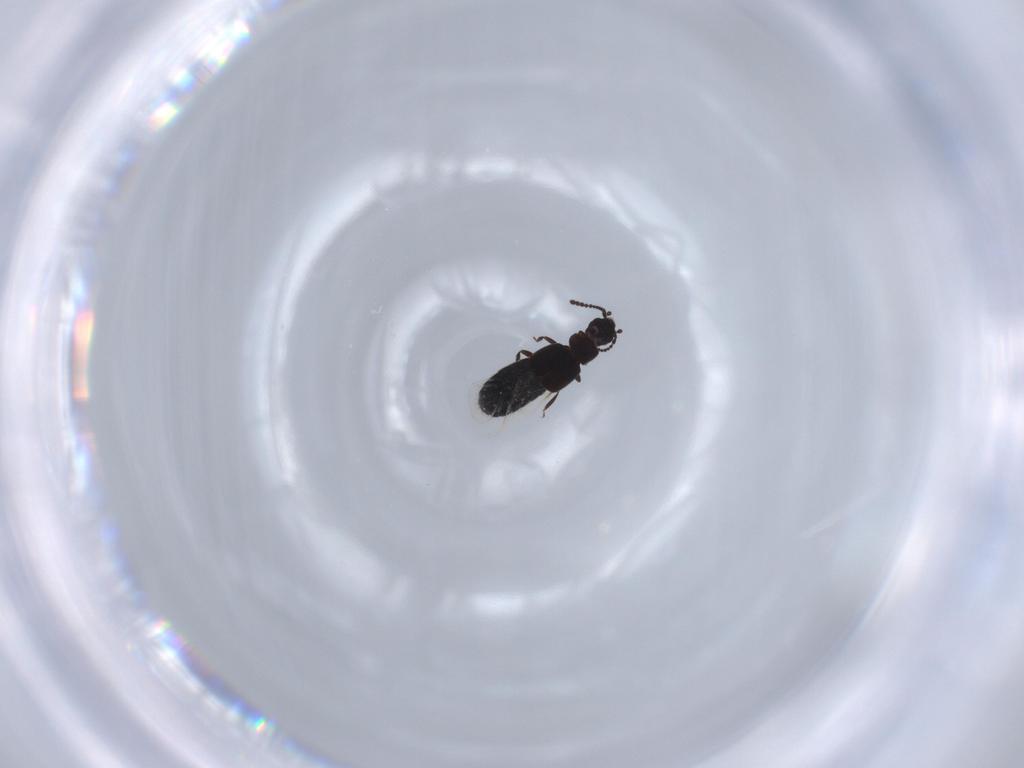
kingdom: Animalia
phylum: Arthropoda
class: Insecta
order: Coleoptera
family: Staphylinidae
